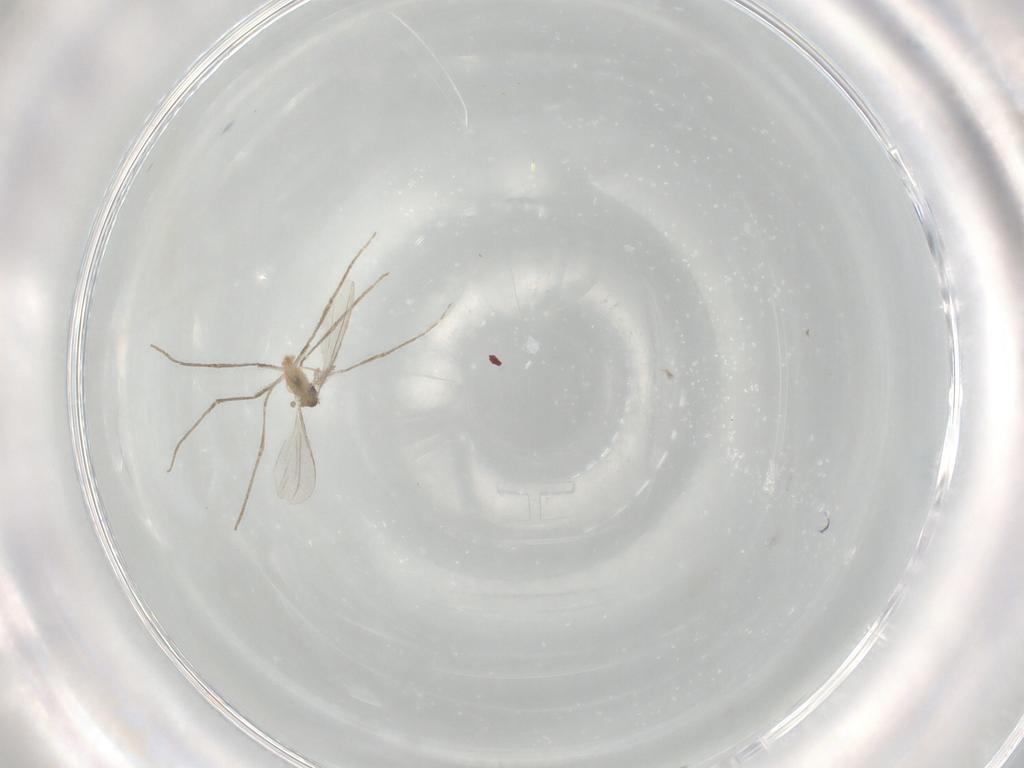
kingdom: Animalia
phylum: Arthropoda
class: Insecta
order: Diptera
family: Cecidomyiidae
